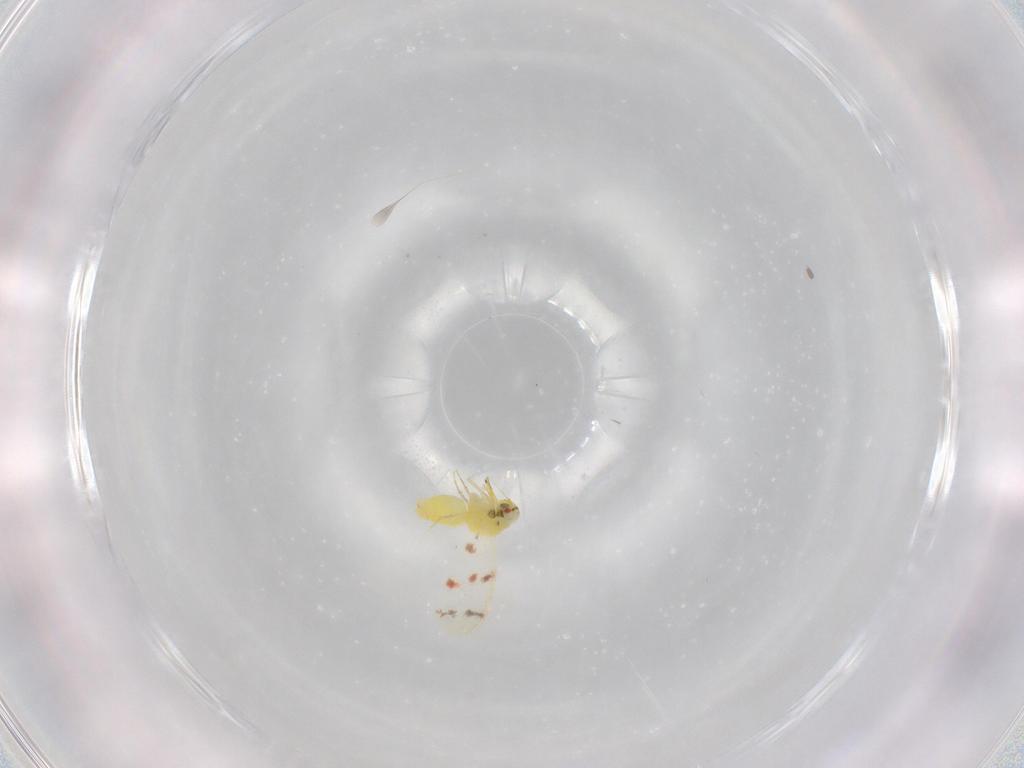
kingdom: Animalia
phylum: Arthropoda
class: Insecta
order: Hemiptera
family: Aleyrodidae
